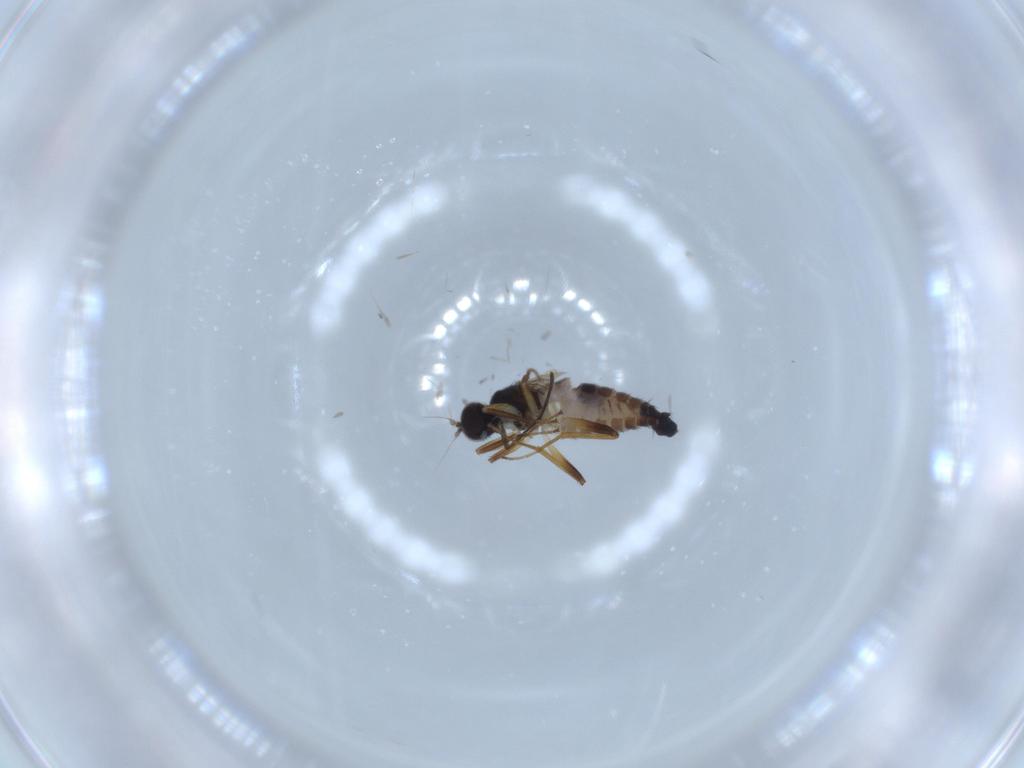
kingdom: Animalia
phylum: Arthropoda
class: Insecta
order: Diptera
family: Hybotidae
